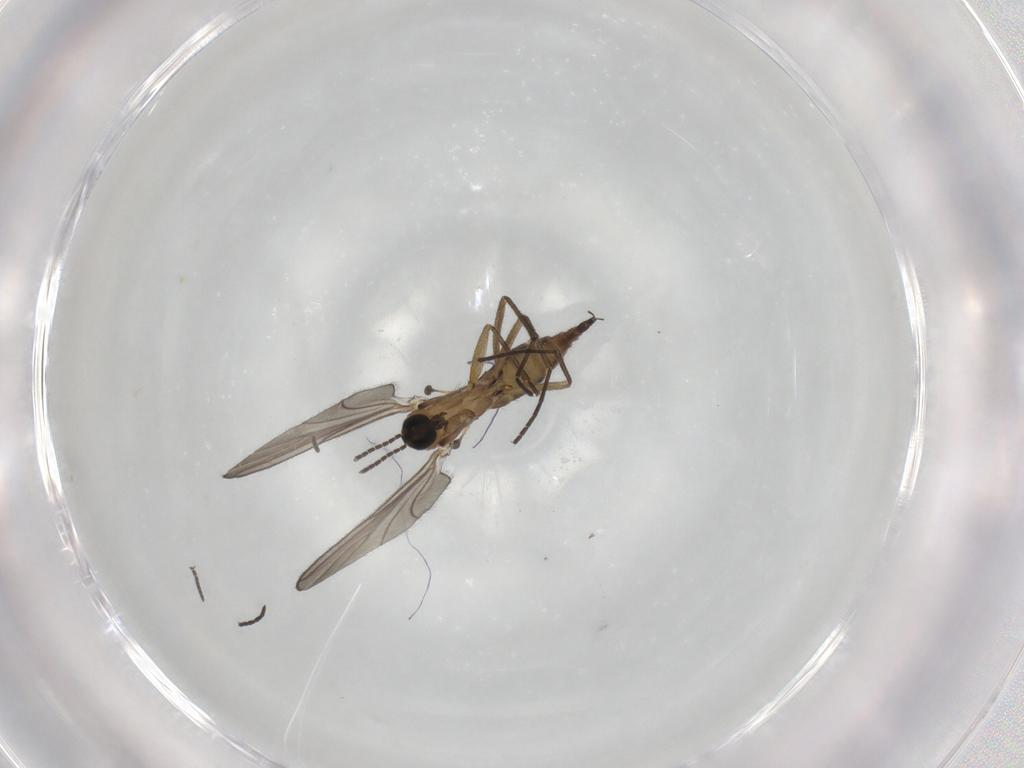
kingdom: Animalia
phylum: Arthropoda
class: Insecta
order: Diptera
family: Sciaridae
